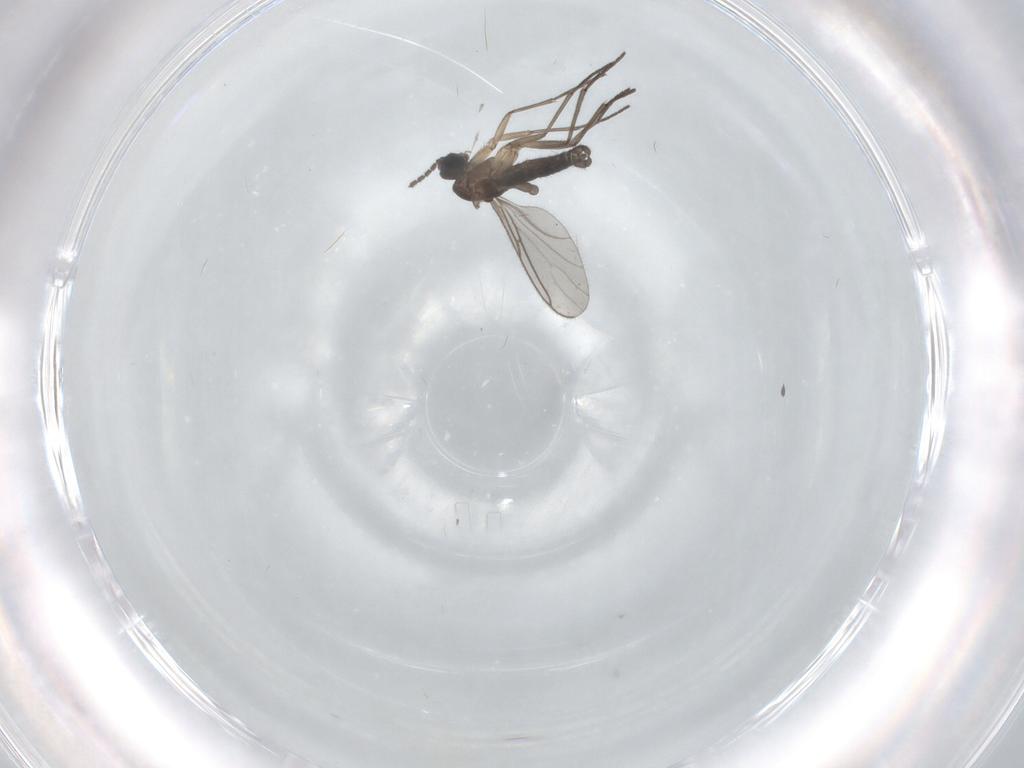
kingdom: Animalia
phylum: Arthropoda
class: Insecta
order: Diptera
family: Sciaridae
